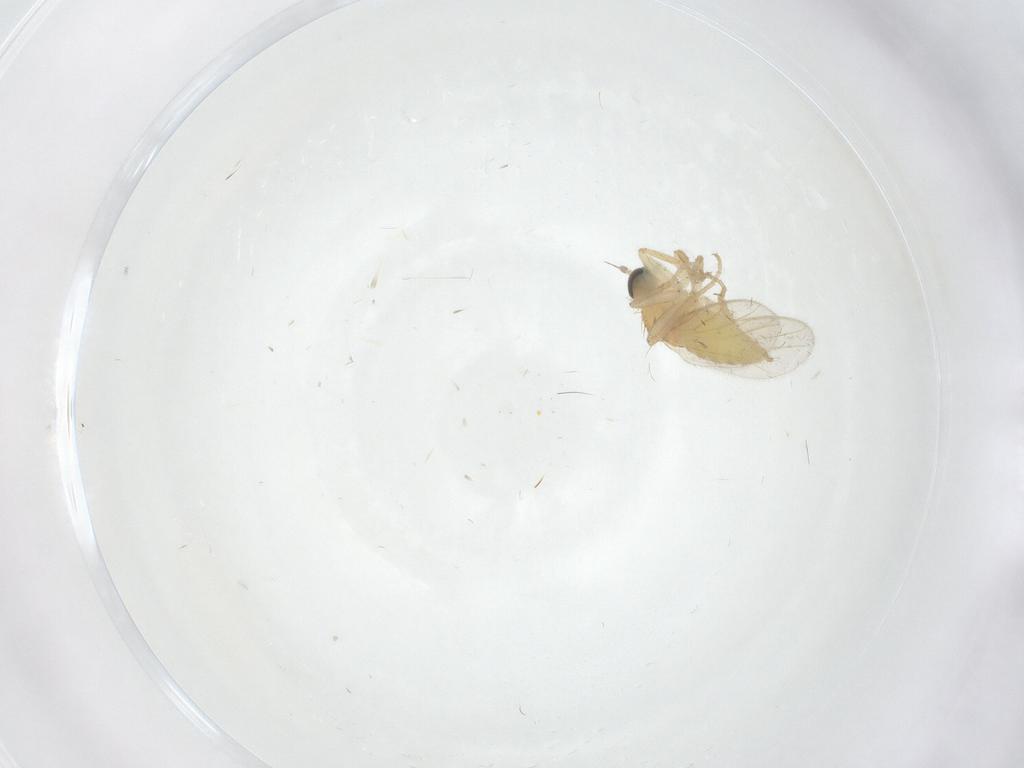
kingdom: Animalia
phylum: Arthropoda
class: Insecta
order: Diptera
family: Hybotidae
